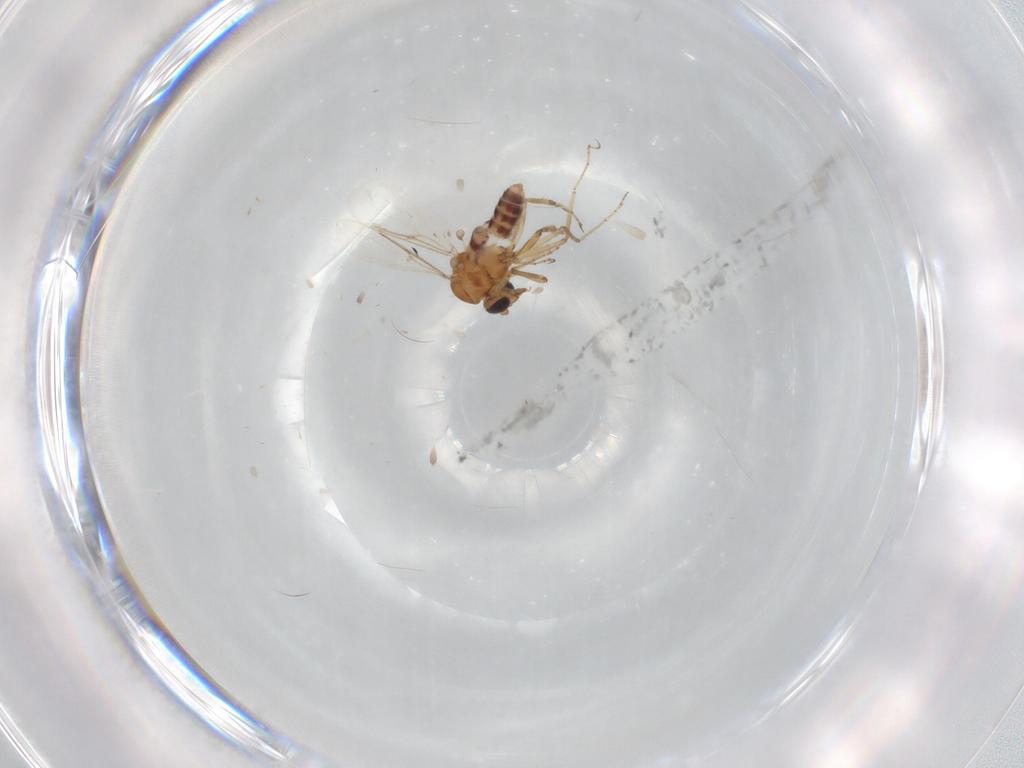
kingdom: Animalia
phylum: Arthropoda
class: Insecta
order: Diptera
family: Ceratopogonidae
